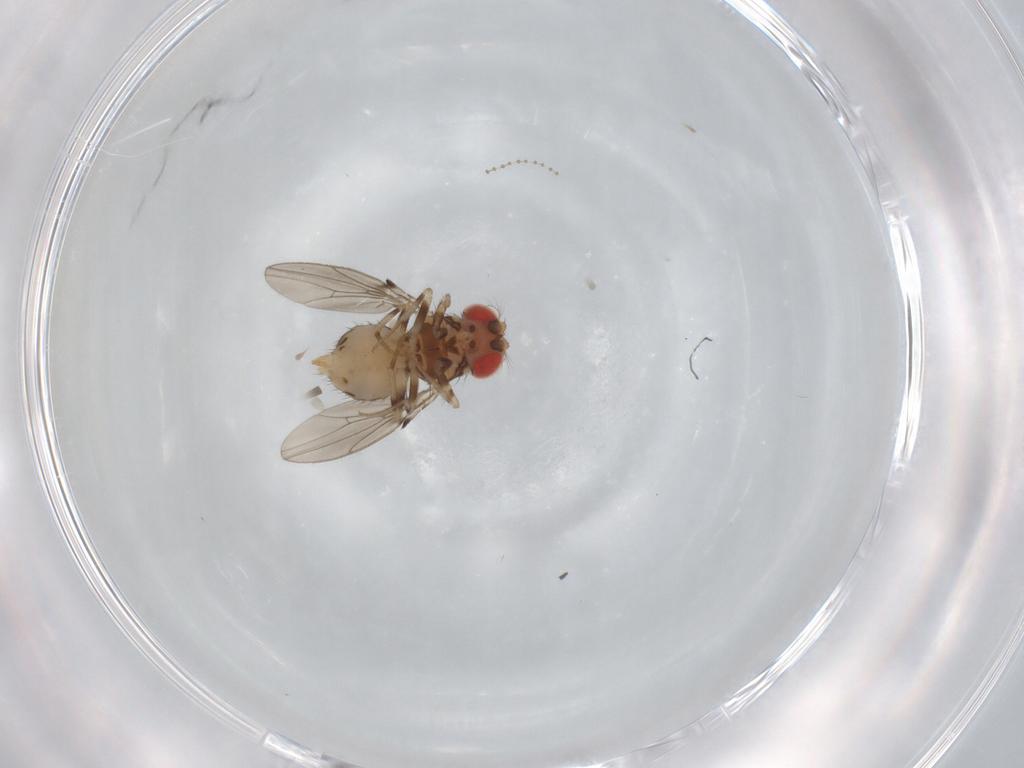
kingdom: Animalia
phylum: Arthropoda
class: Insecta
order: Diptera
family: Drosophilidae
